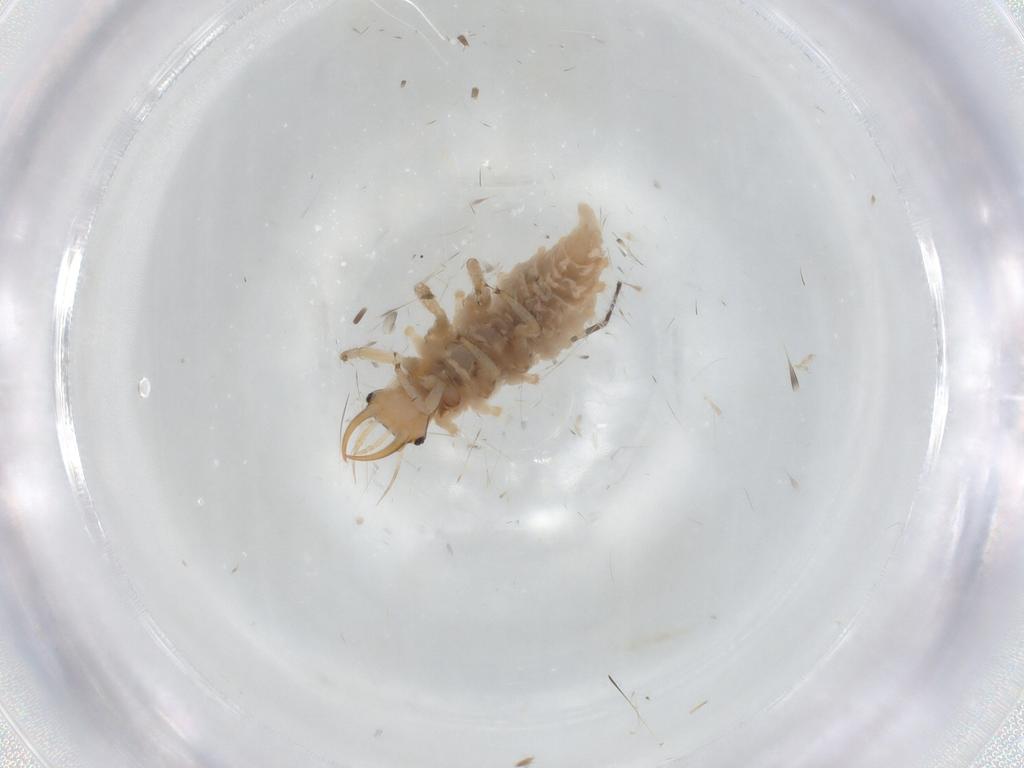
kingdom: Animalia
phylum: Arthropoda
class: Insecta
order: Neuroptera
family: Chrysopidae
